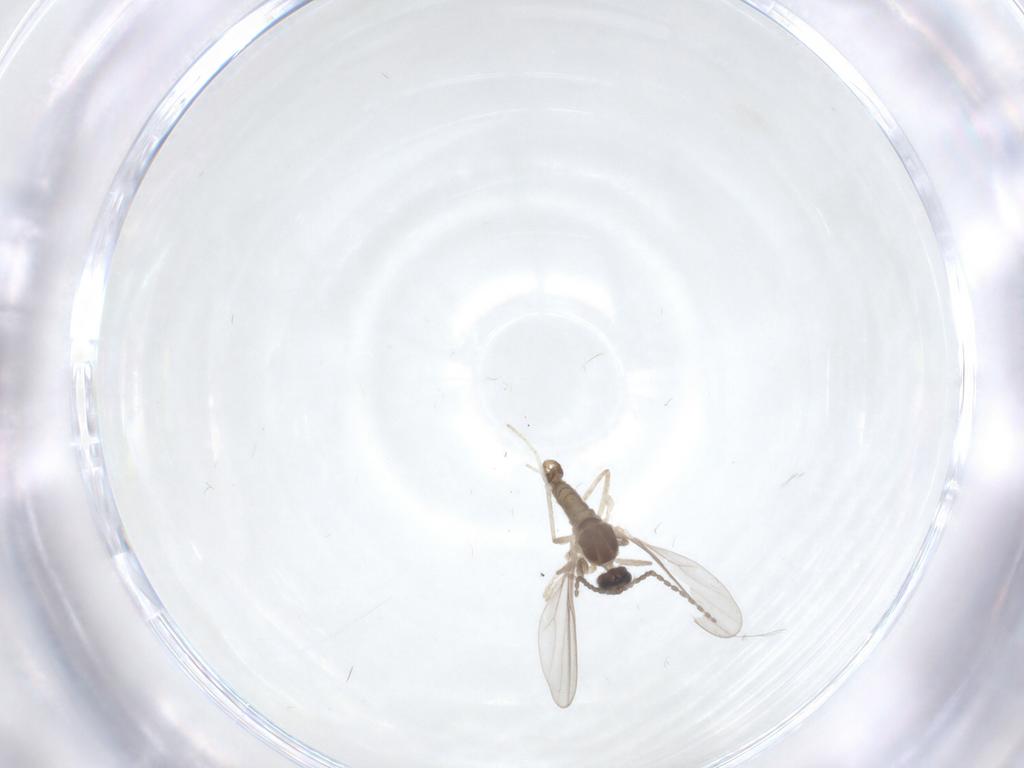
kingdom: Animalia
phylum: Arthropoda
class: Insecta
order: Diptera
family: Cecidomyiidae
